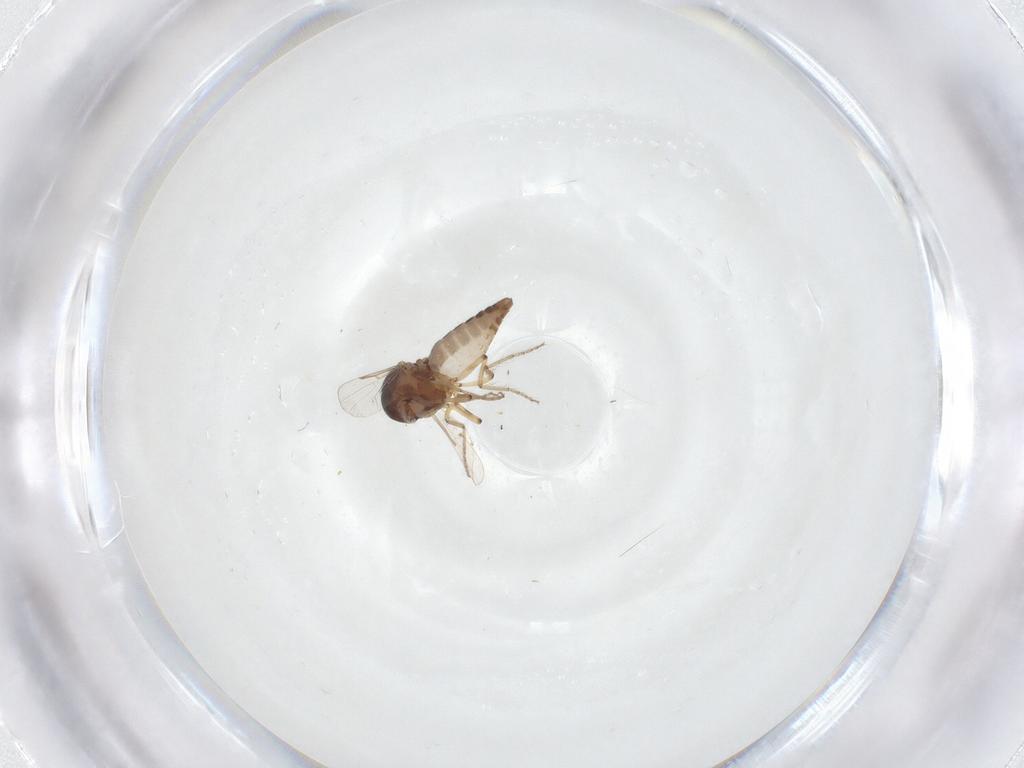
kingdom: Animalia
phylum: Arthropoda
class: Insecta
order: Diptera
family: Ceratopogonidae
